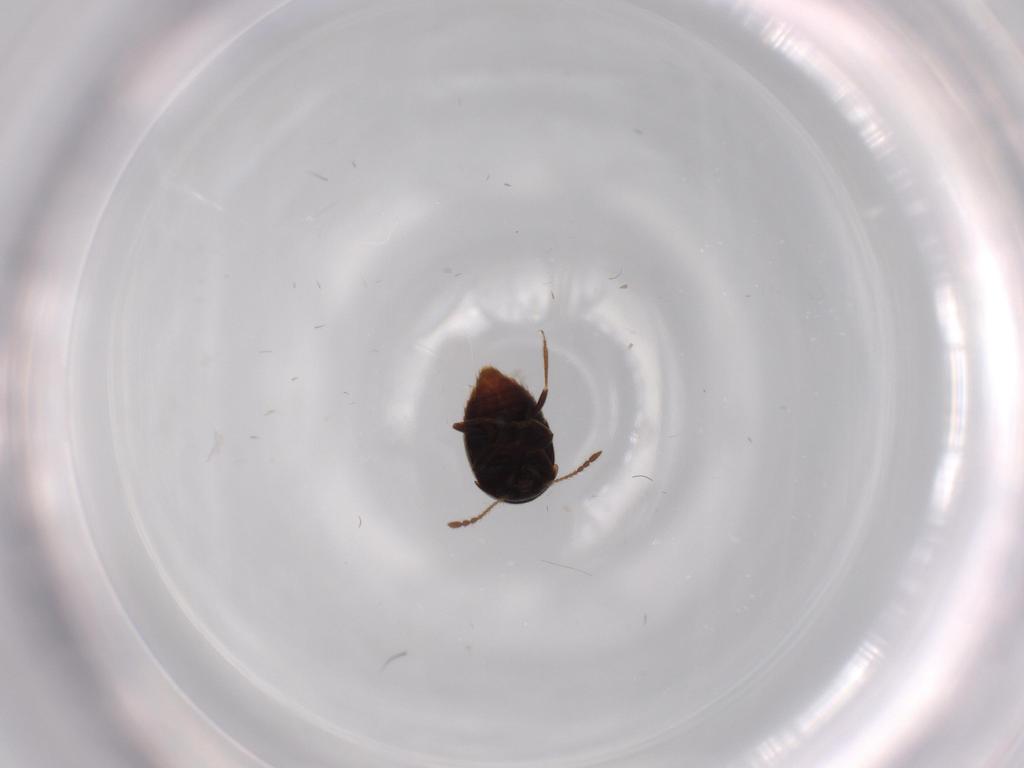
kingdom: Animalia
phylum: Arthropoda
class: Insecta
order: Coleoptera
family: Staphylinidae
